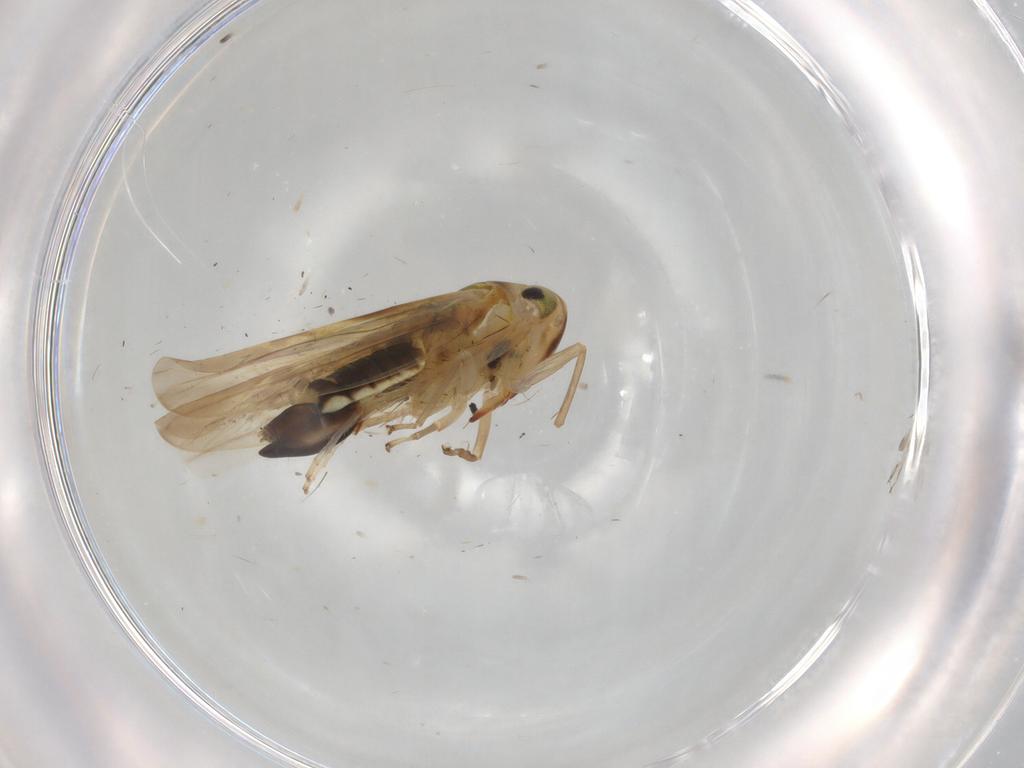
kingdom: Animalia
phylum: Arthropoda
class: Insecta
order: Hemiptera
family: Cicadellidae
